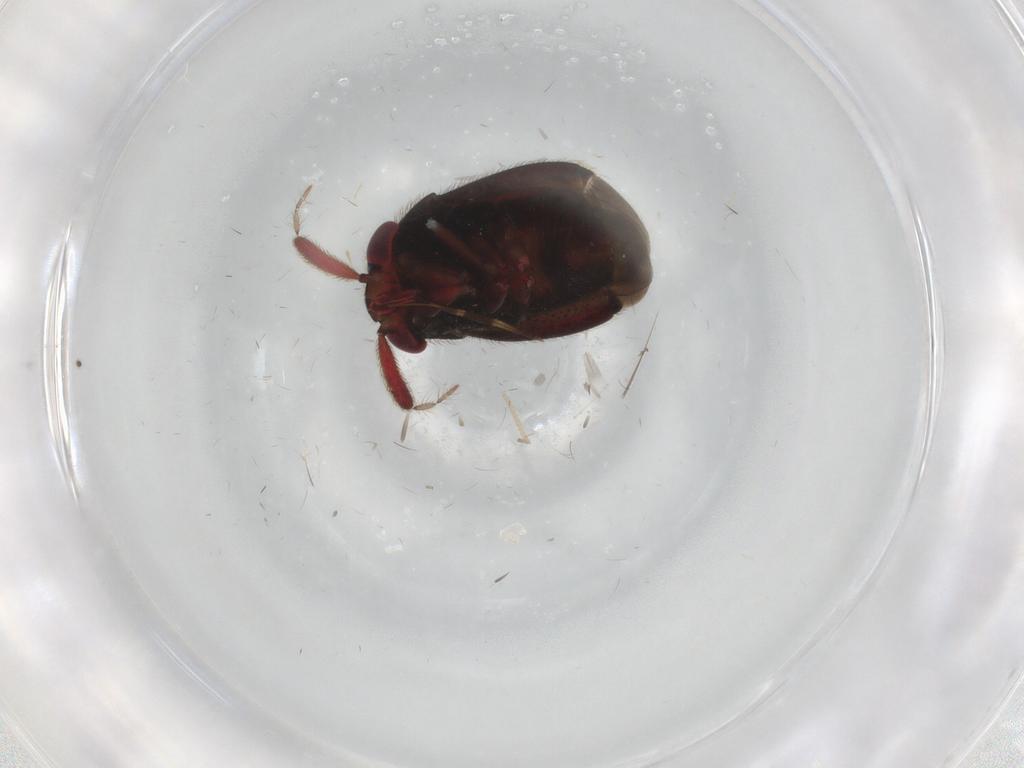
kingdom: Animalia
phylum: Arthropoda
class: Insecta
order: Hemiptera
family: Miridae
